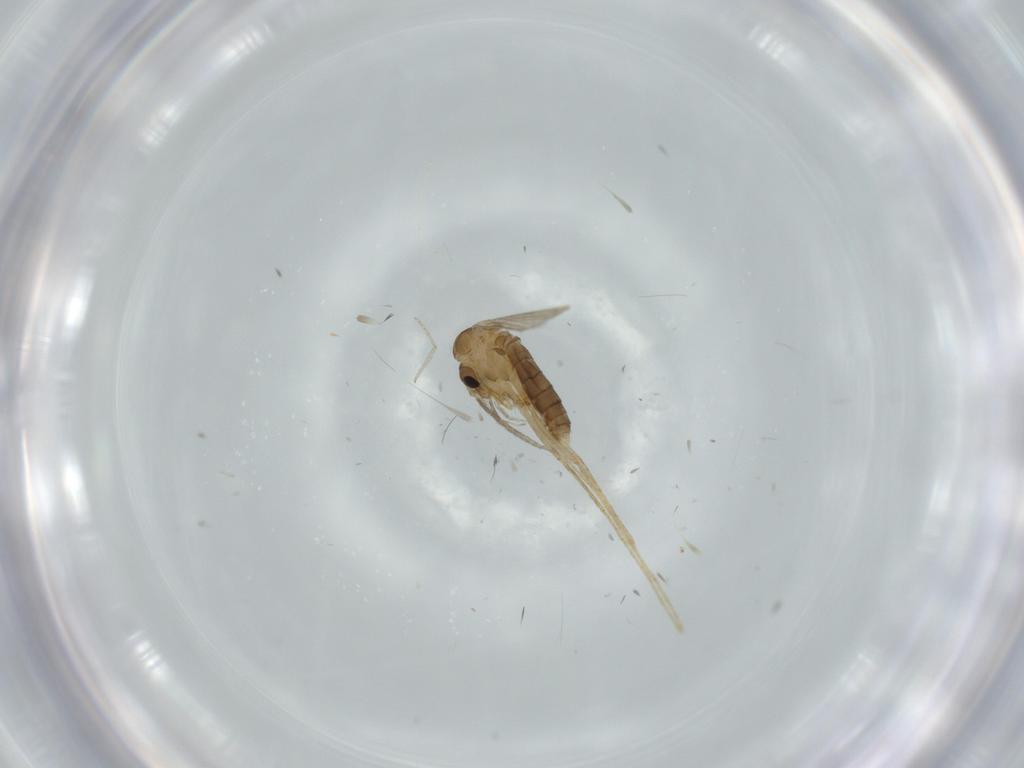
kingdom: Animalia
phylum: Arthropoda
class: Insecta
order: Diptera
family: Psychodidae
